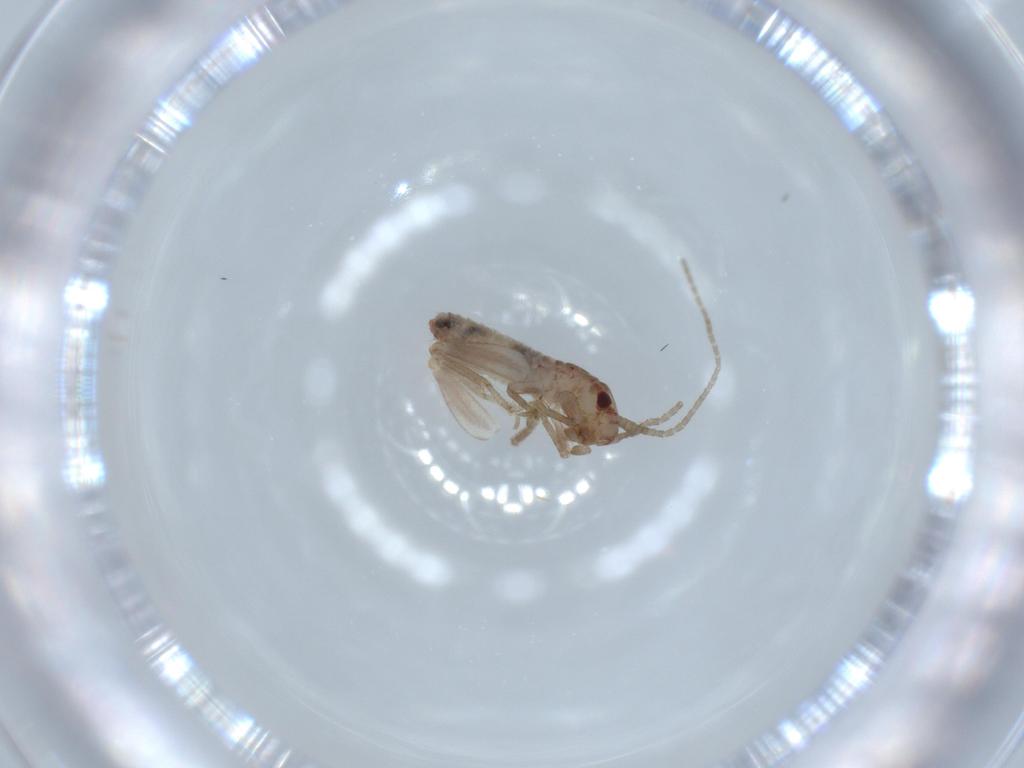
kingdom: Animalia
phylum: Arthropoda
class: Insecta
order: Orthoptera
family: Mogoplistidae
